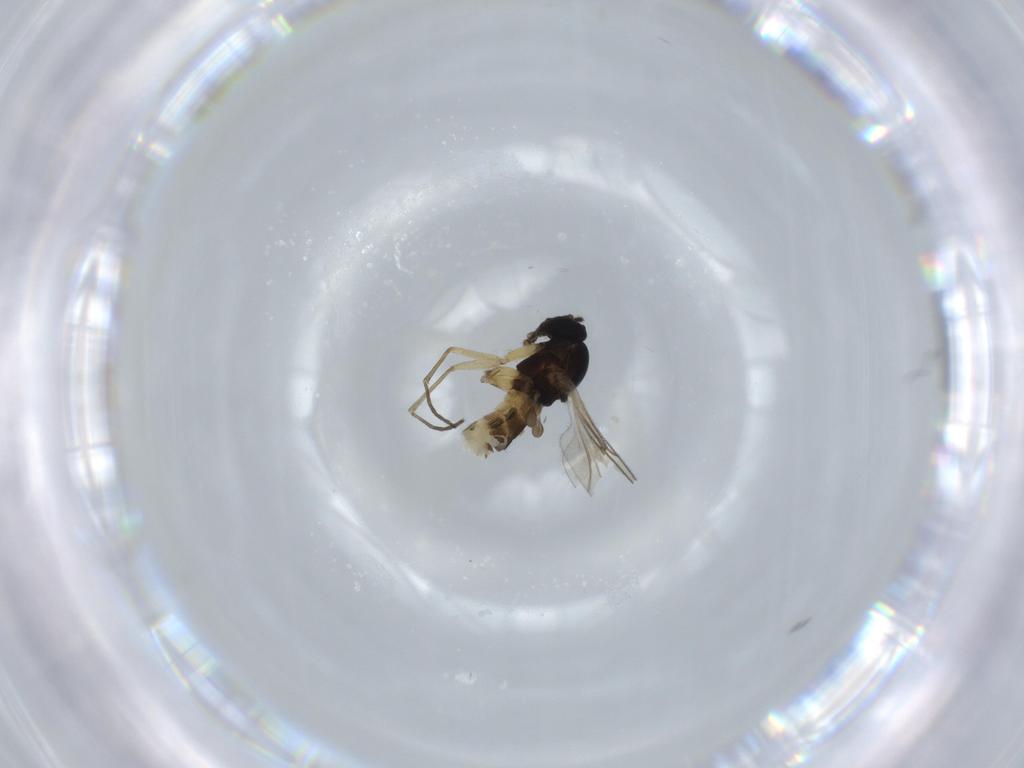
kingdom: Animalia
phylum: Arthropoda
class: Insecta
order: Diptera
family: Sciaridae
